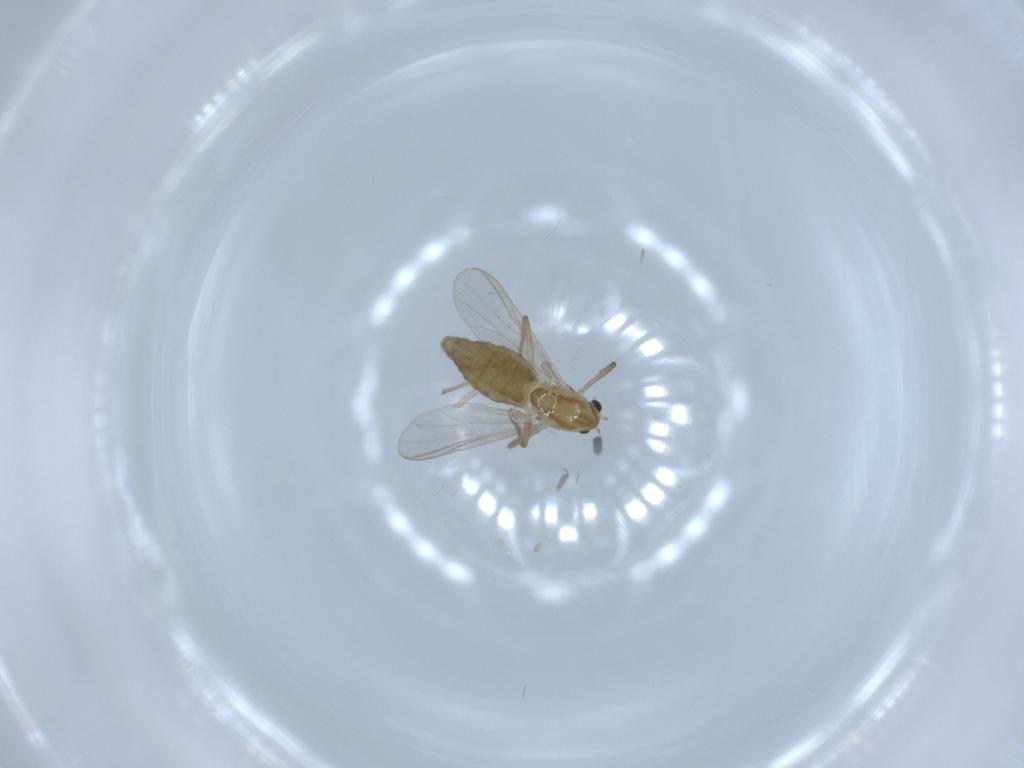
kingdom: Animalia
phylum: Arthropoda
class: Insecta
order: Diptera
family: Chironomidae
